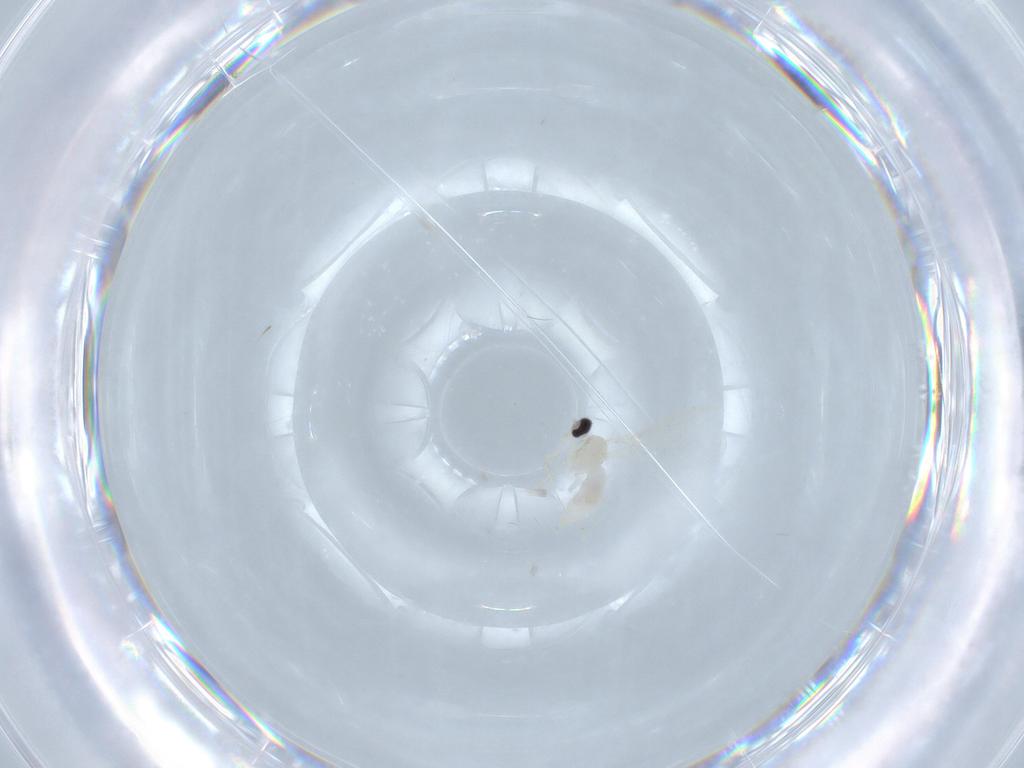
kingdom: Animalia
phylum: Arthropoda
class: Insecta
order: Diptera
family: Cecidomyiidae
